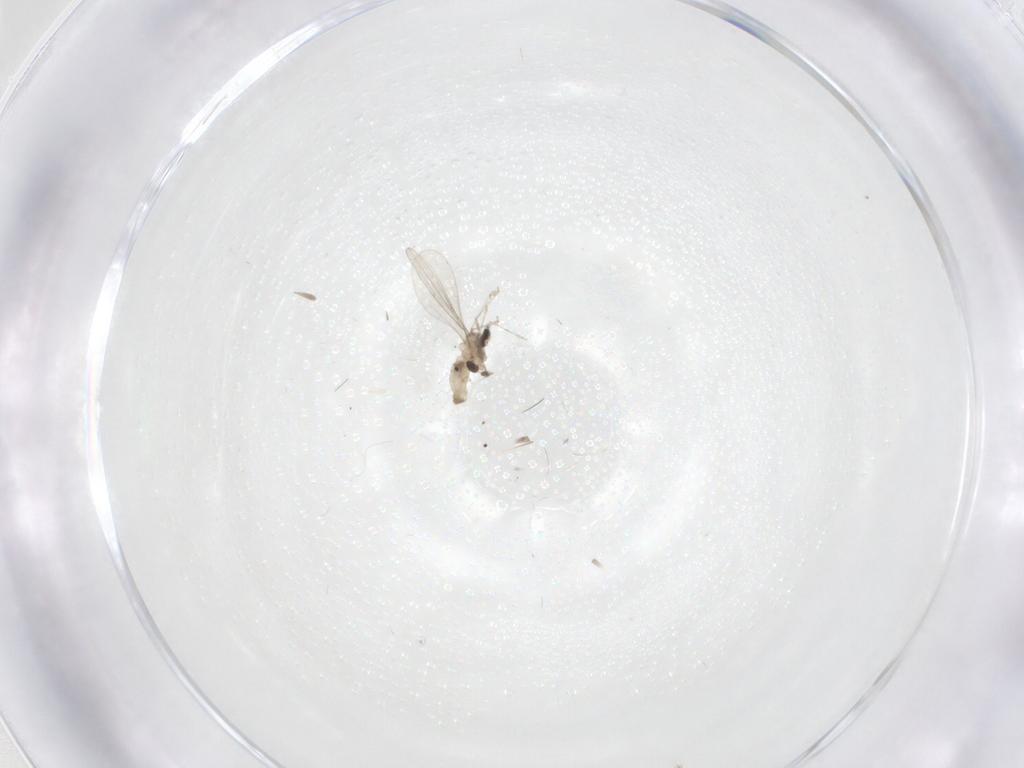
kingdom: Animalia
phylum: Arthropoda
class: Insecta
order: Diptera
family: Cecidomyiidae
